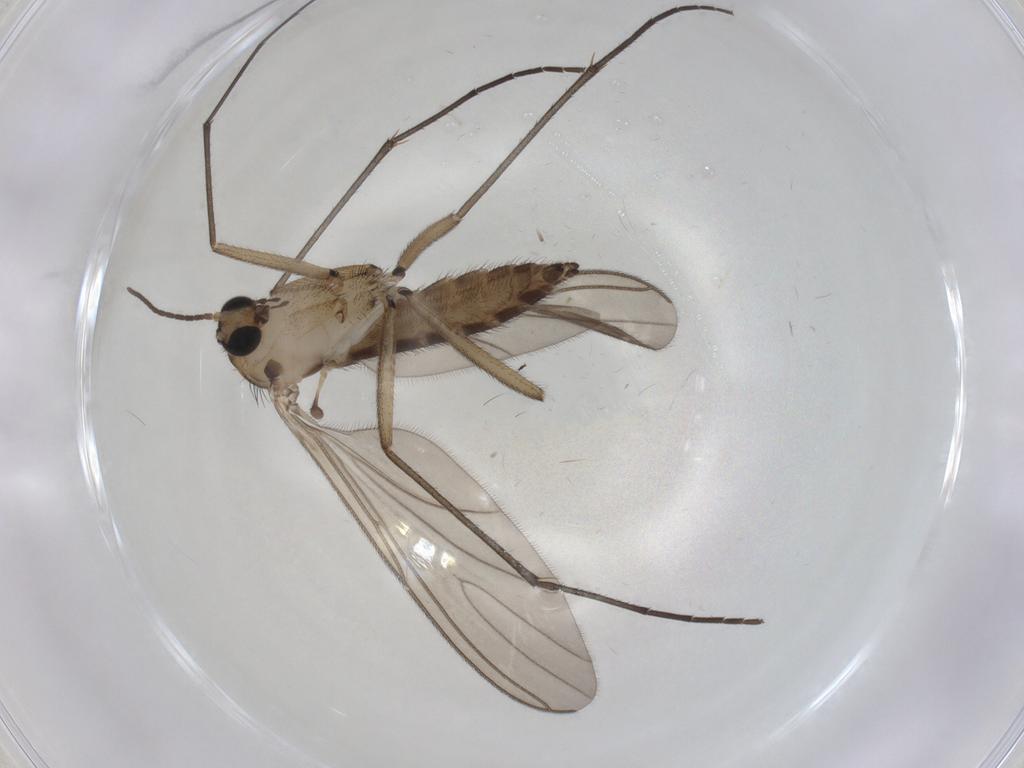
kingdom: Animalia
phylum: Arthropoda
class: Insecta
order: Diptera
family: Sciaridae
